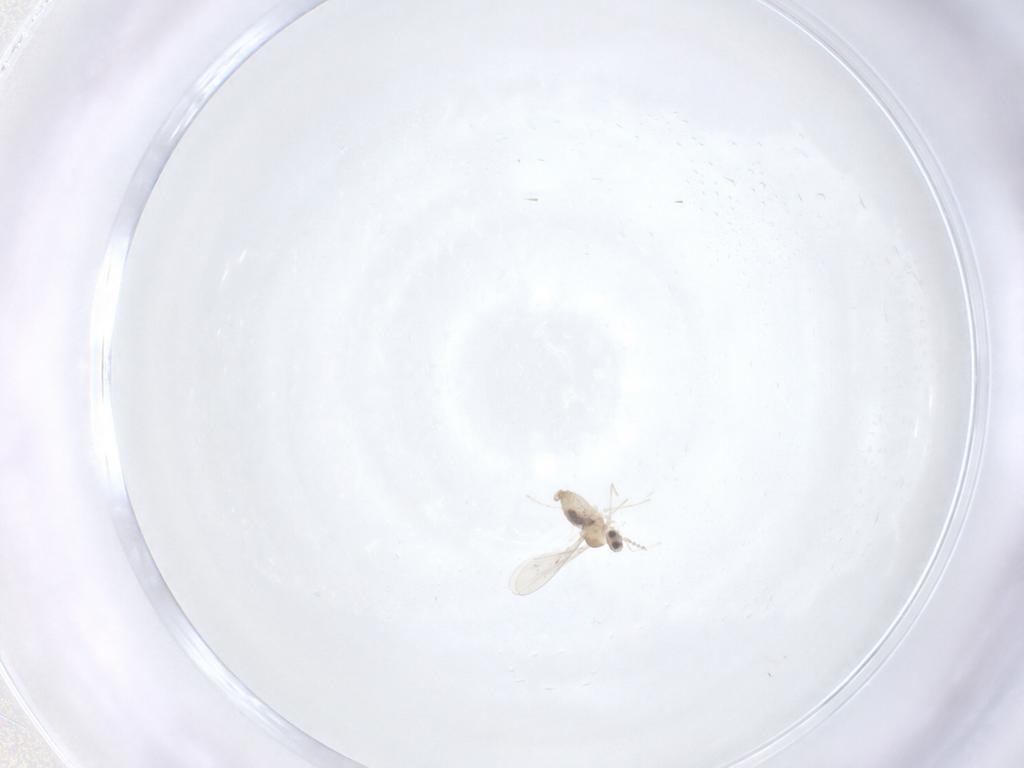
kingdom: Animalia
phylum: Arthropoda
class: Insecta
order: Diptera
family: Cecidomyiidae
